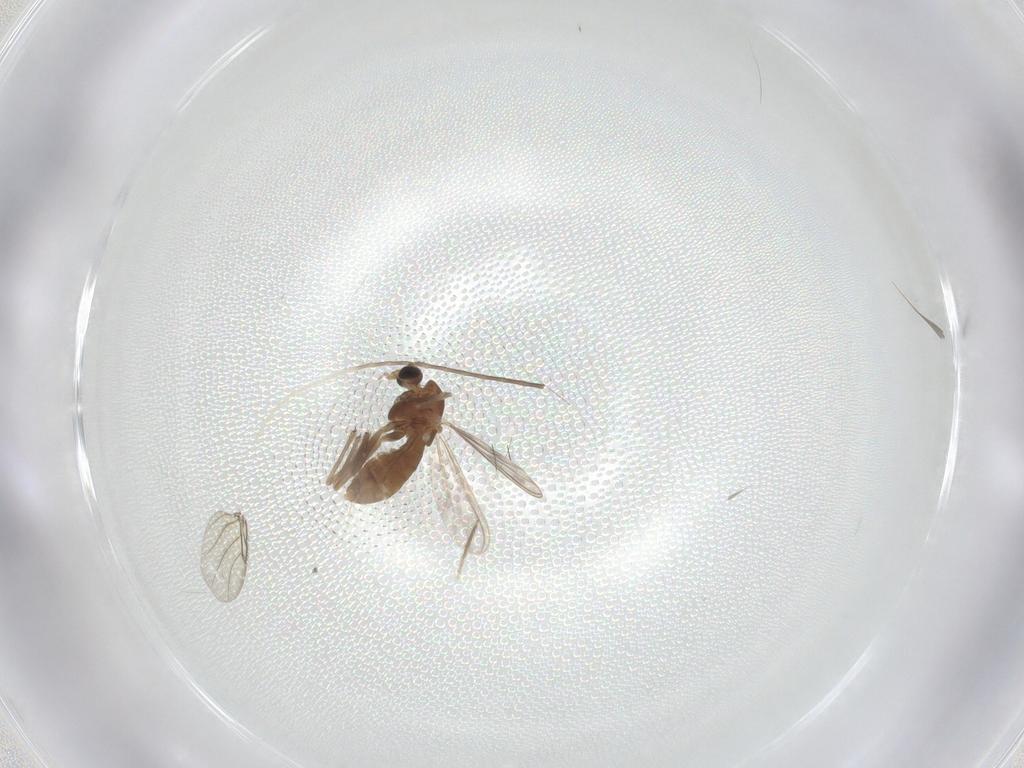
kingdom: Animalia
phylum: Arthropoda
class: Insecta
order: Diptera
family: Chironomidae
